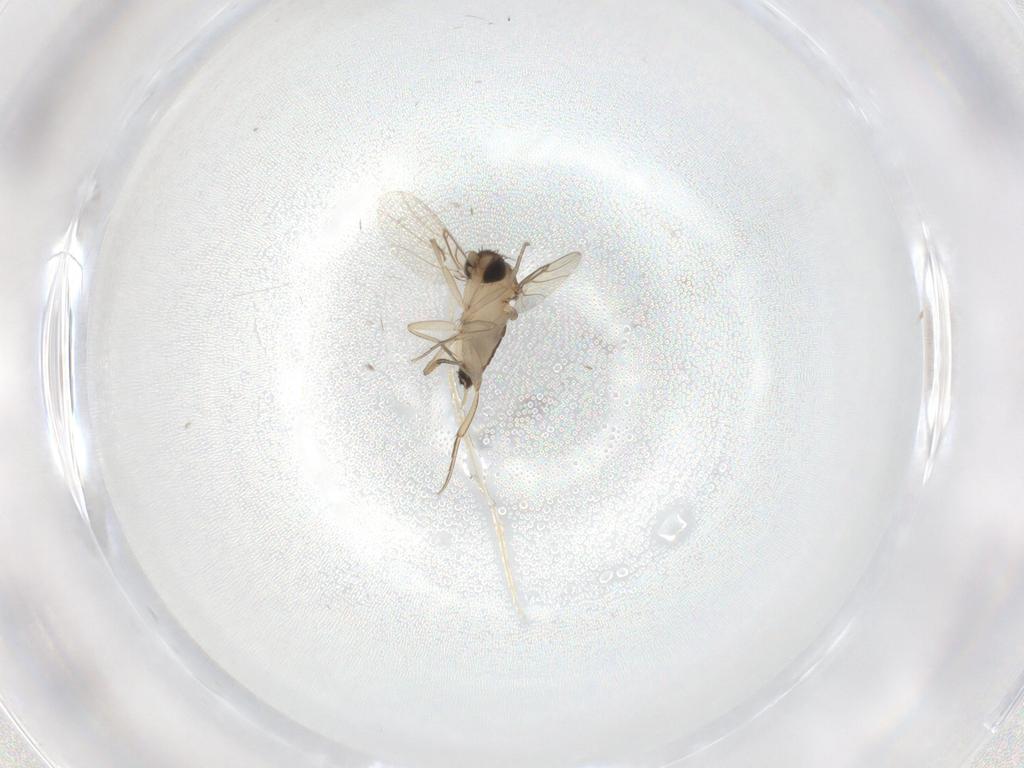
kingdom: Animalia
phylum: Arthropoda
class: Insecta
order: Diptera
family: Phoridae
